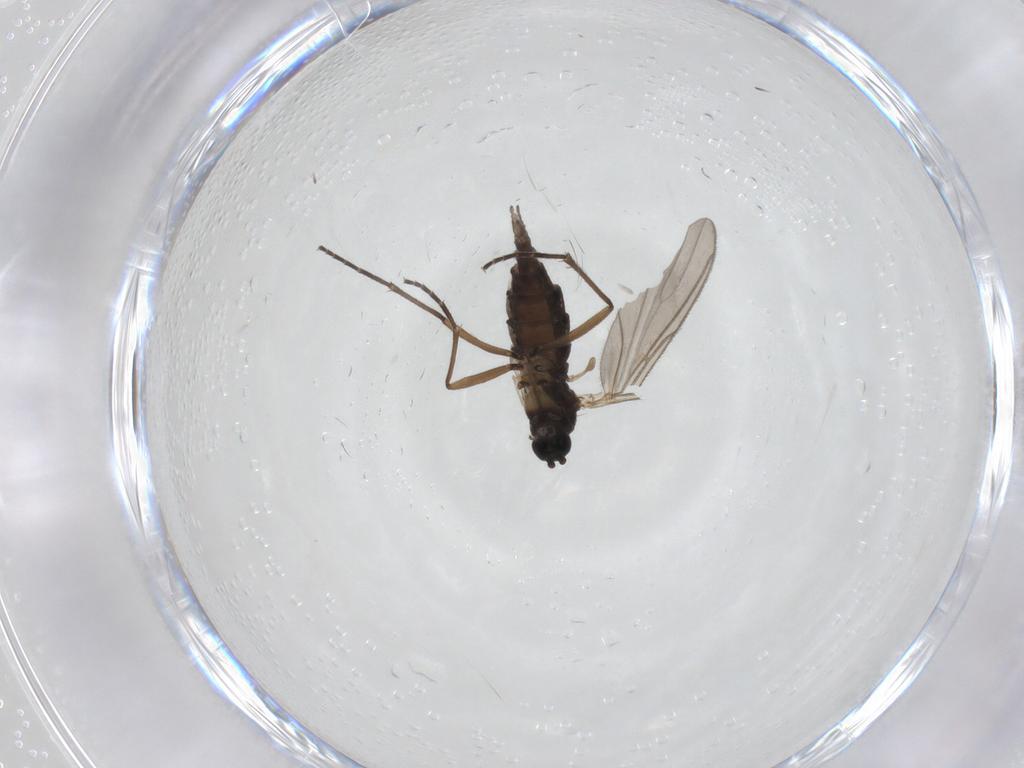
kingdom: Animalia
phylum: Arthropoda
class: Insecta
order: Diptera
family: Sciaridae
